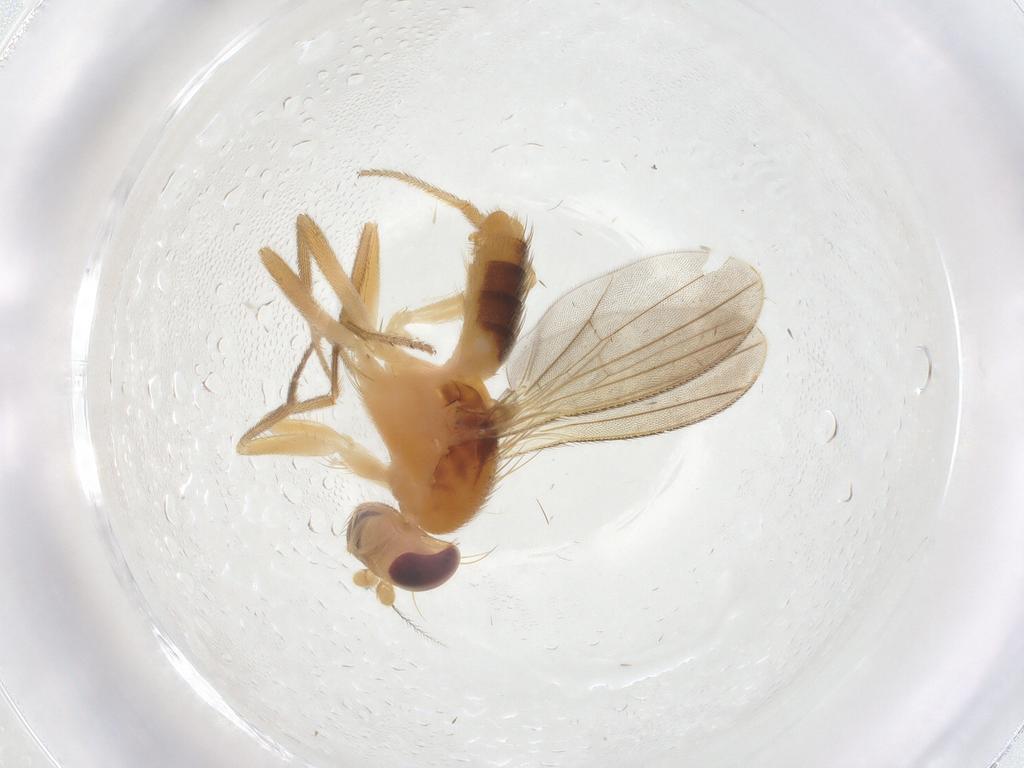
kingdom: Animalia
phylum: Arthropoda
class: Insecta
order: Diptera
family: Agromyzidae
